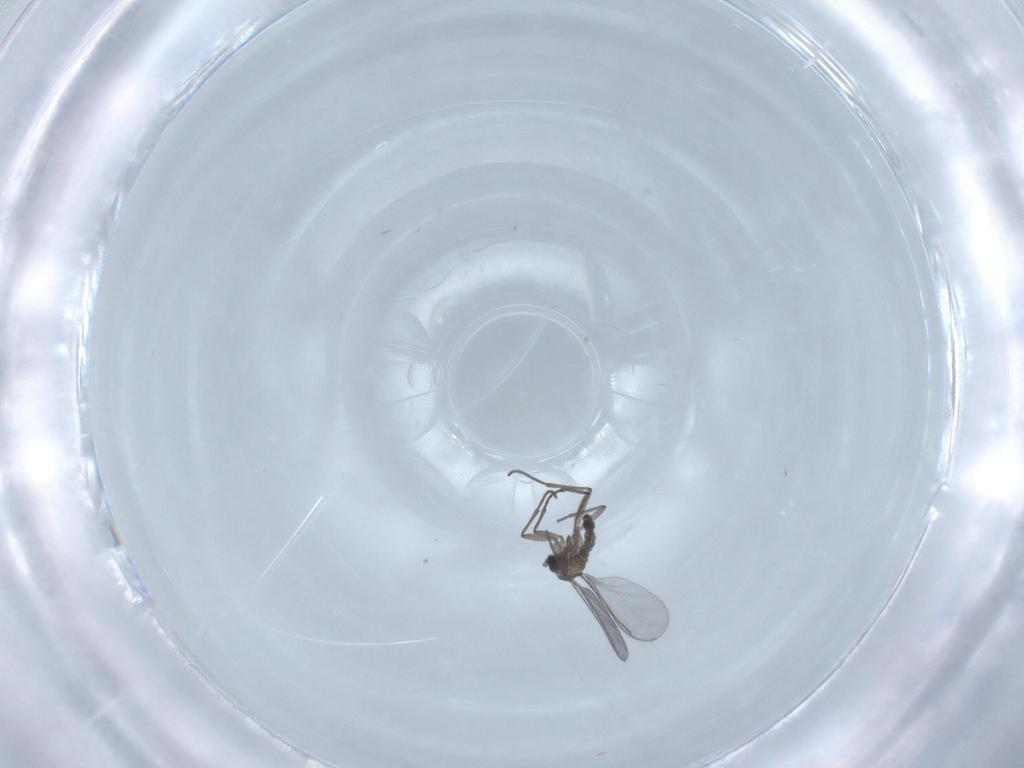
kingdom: Animalia
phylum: Arthropoda
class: Insecta
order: Diptera
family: Sciaridae
